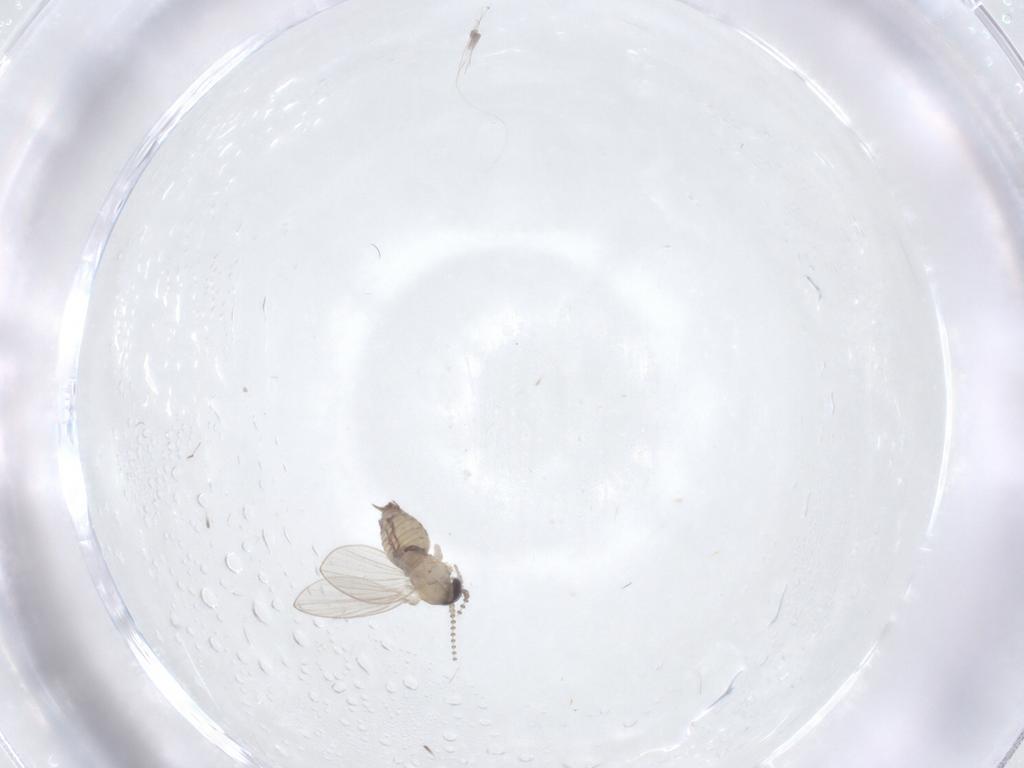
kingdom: Animalia
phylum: Arthropoda
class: Insecta
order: Diptera
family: Psychodidae
